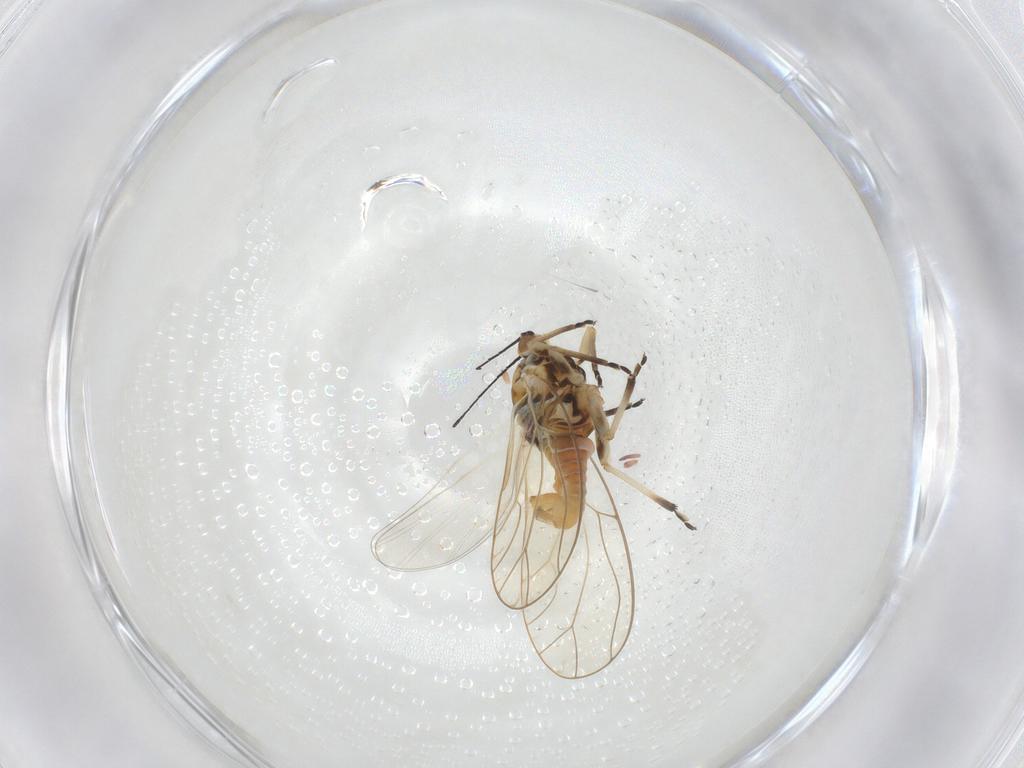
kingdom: Animalia
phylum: Arthropoda
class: Insecta
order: Hemiptera
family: Triozidae
